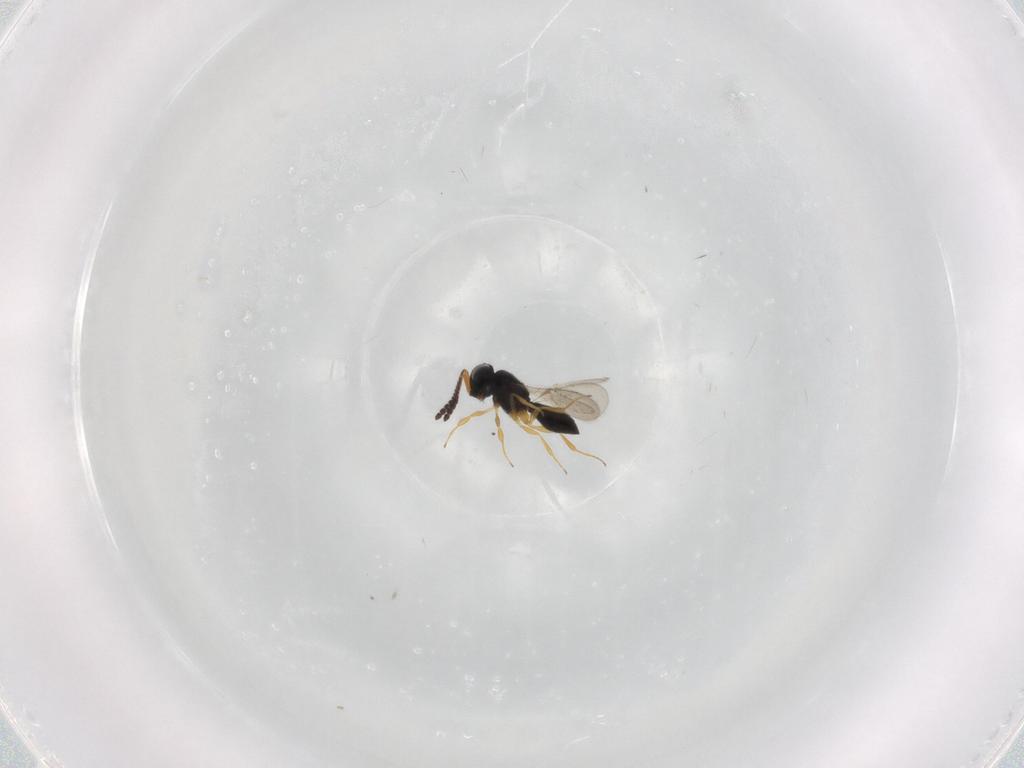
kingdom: Animalia
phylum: Arthropoda
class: Insecta
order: Hymenoptera
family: Scelionidae
